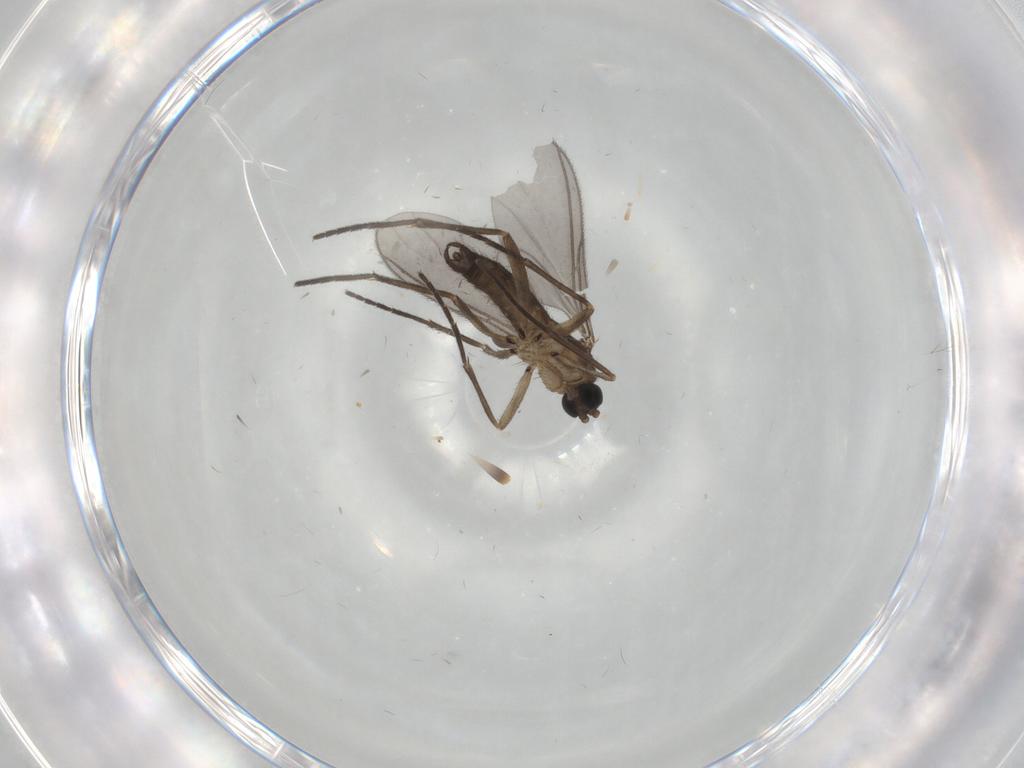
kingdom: Animalia
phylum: Arthropoda
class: Insecta
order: Diptera
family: Sciaridae
